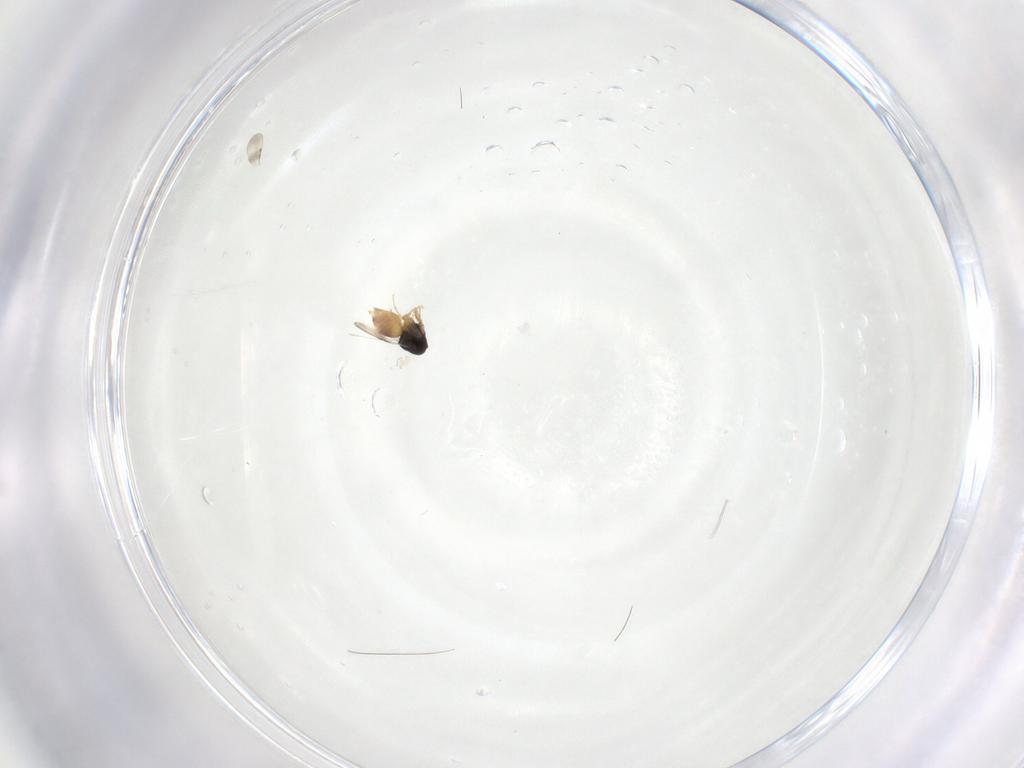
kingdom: Animalia
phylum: Arthropoda
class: Insecta
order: Hymenoptera
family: Ceraphronidae
